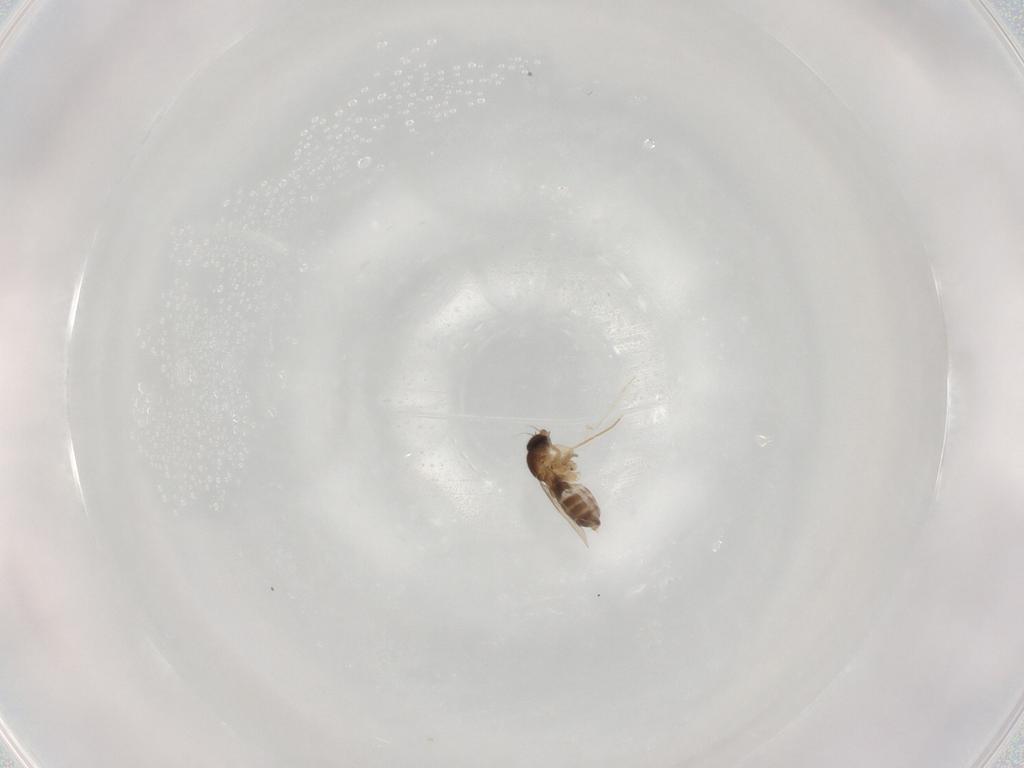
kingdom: Animalia
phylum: Arthropoda
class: Insecta
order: Diptera
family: Phoridae
